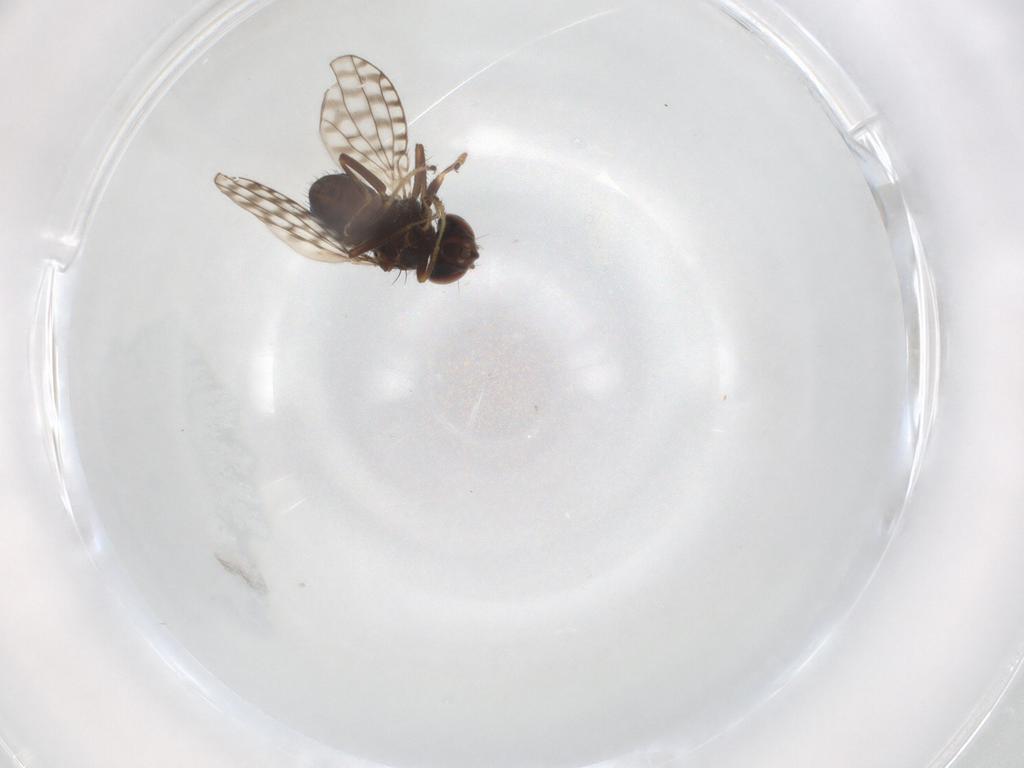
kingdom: Animalia
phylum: Arthropoda
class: Insecta
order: Diptera
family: Ephydridae
